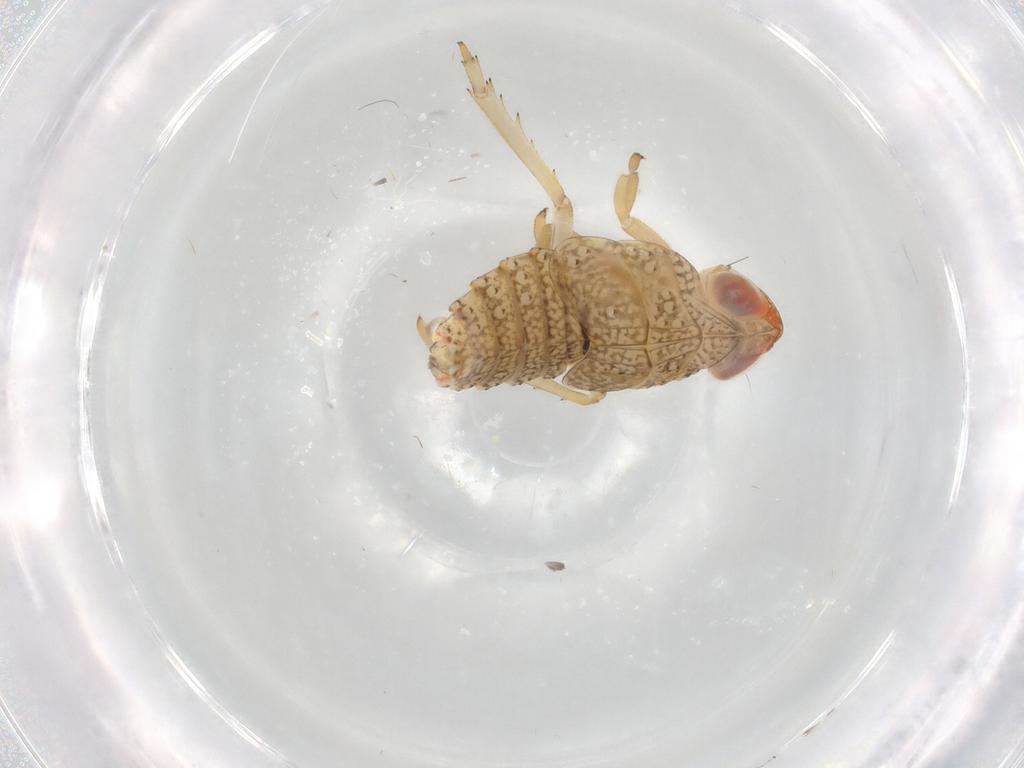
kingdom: Animalia
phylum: Arthropoda
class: Insecta
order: Hemiptera
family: Fulgoroidea_incertae_sedis
